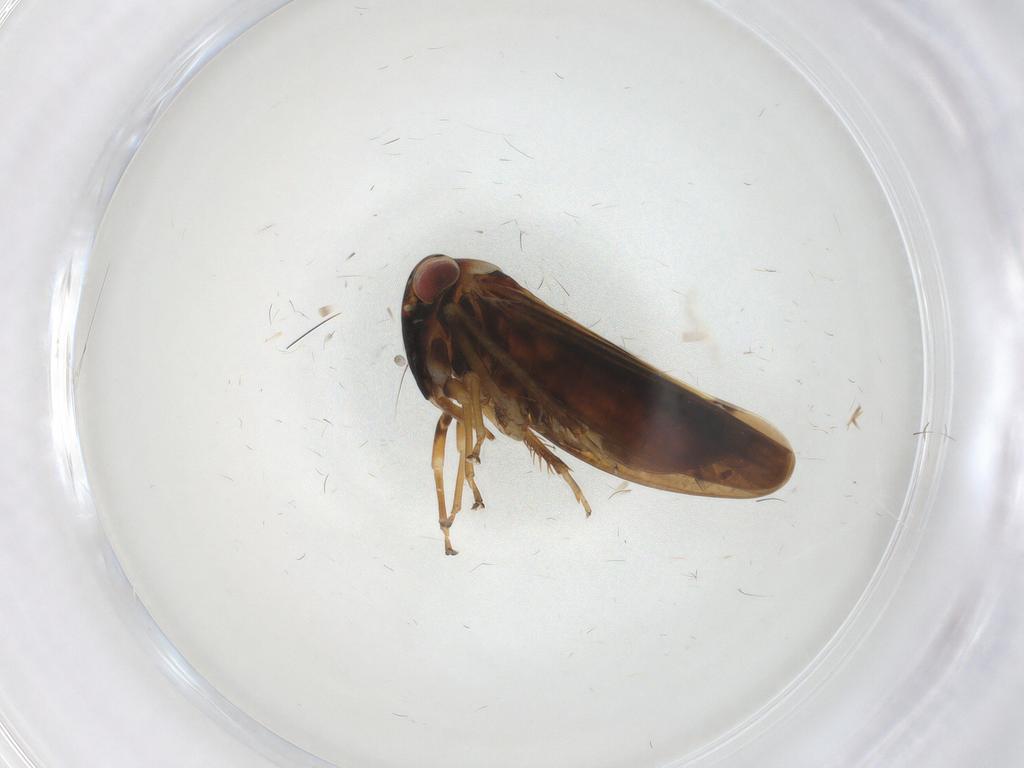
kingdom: Animalia
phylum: Arthropoda
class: Insecta
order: Hemiptera
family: Cicadellidae
